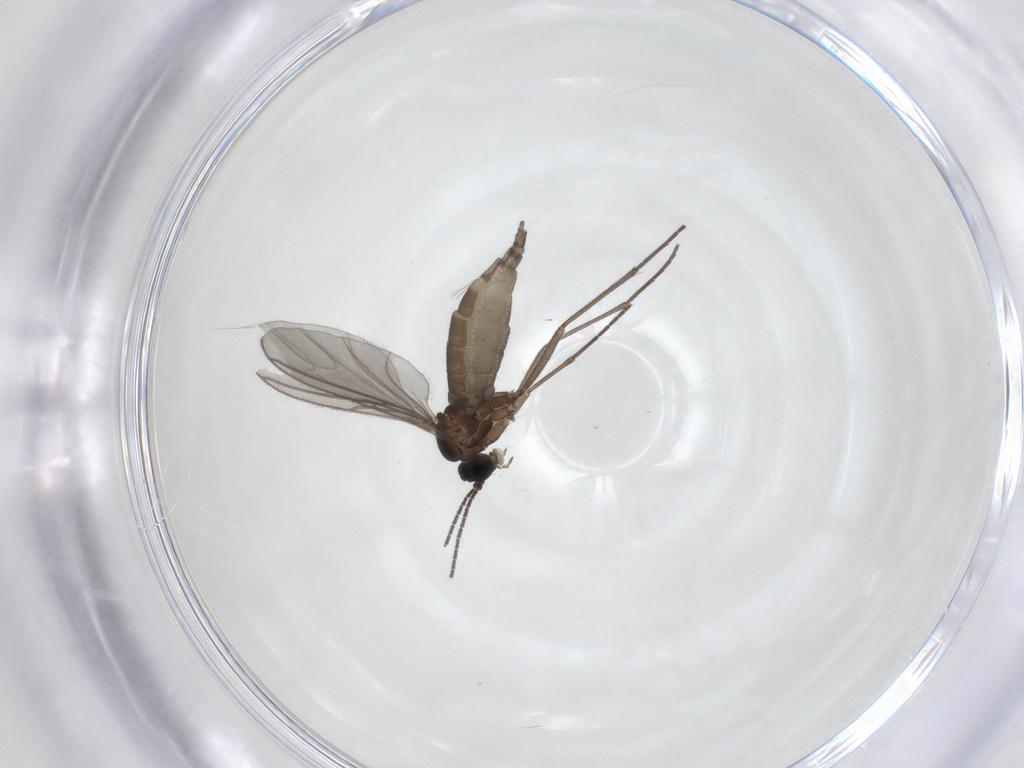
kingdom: Animalia
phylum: Arthropoda
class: Insecta
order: Diptera
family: Sciaridae
